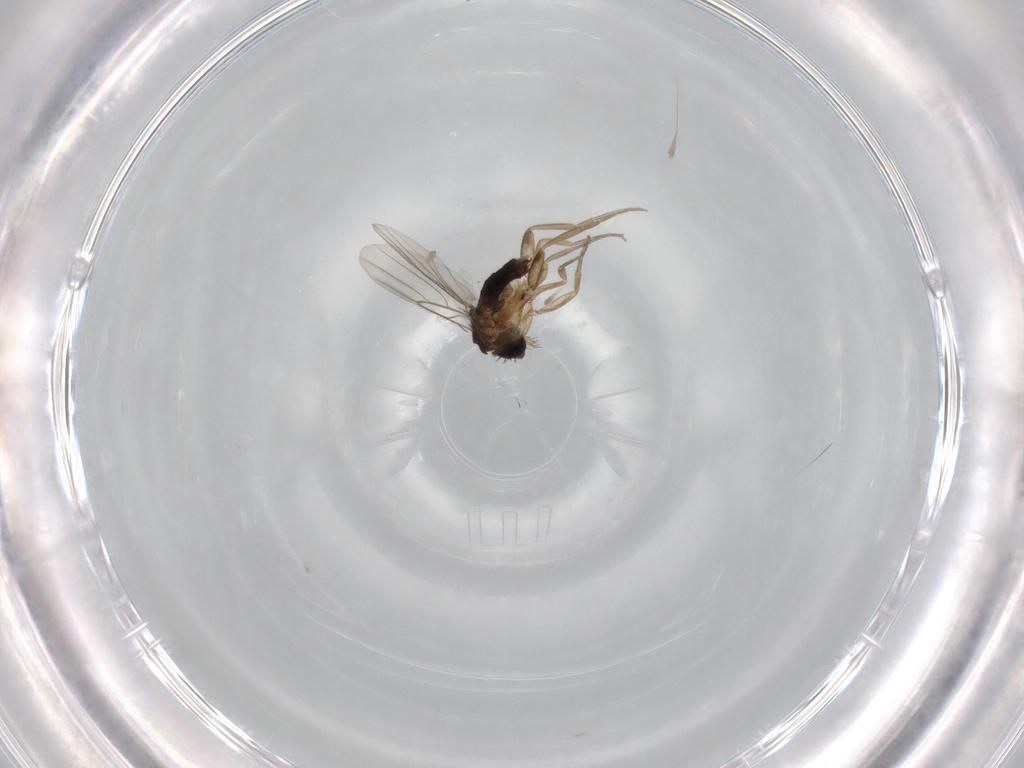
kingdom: Animalia
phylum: Arthropoda
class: Insecta
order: Diptera
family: Phoridae
